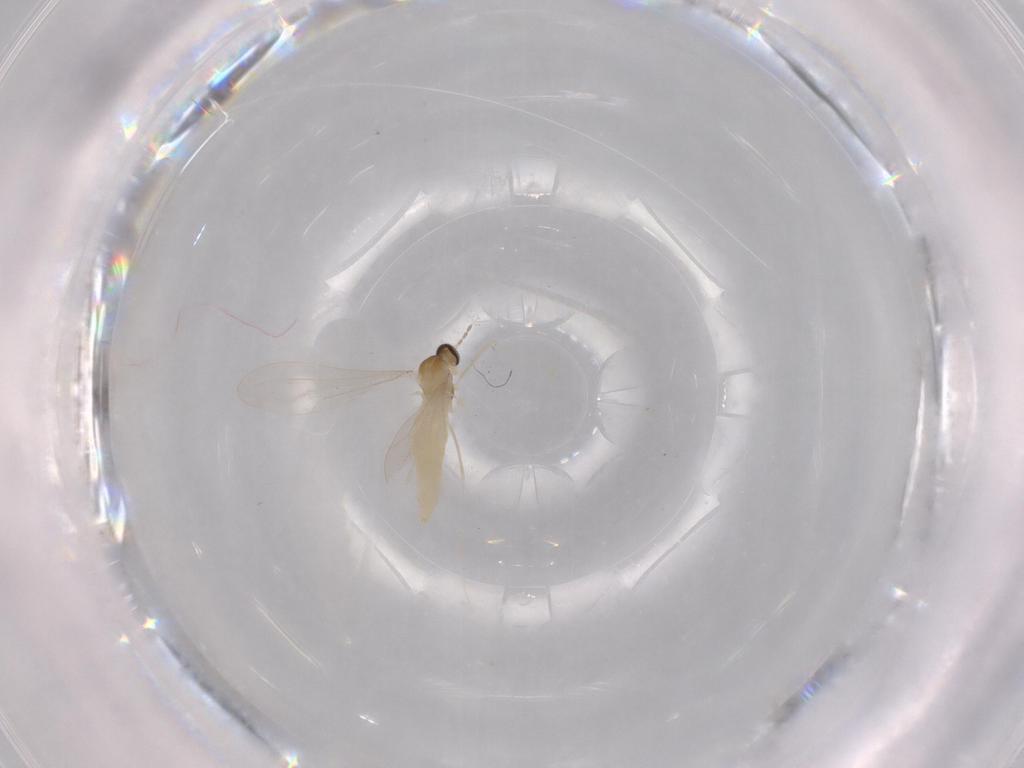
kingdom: Animalia
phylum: Arthropoda
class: Insecta
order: Diptera
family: Cecidomyiidae
